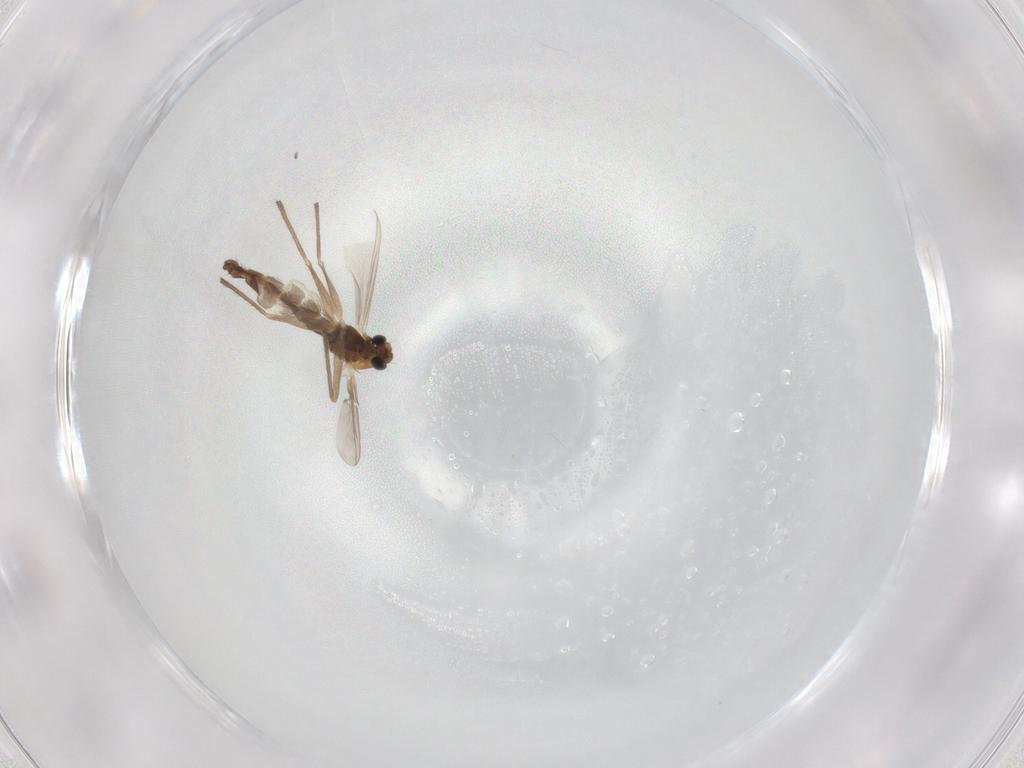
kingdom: Animalia
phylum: Arthropoda
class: Insecta
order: Diptera
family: Chironomidae
